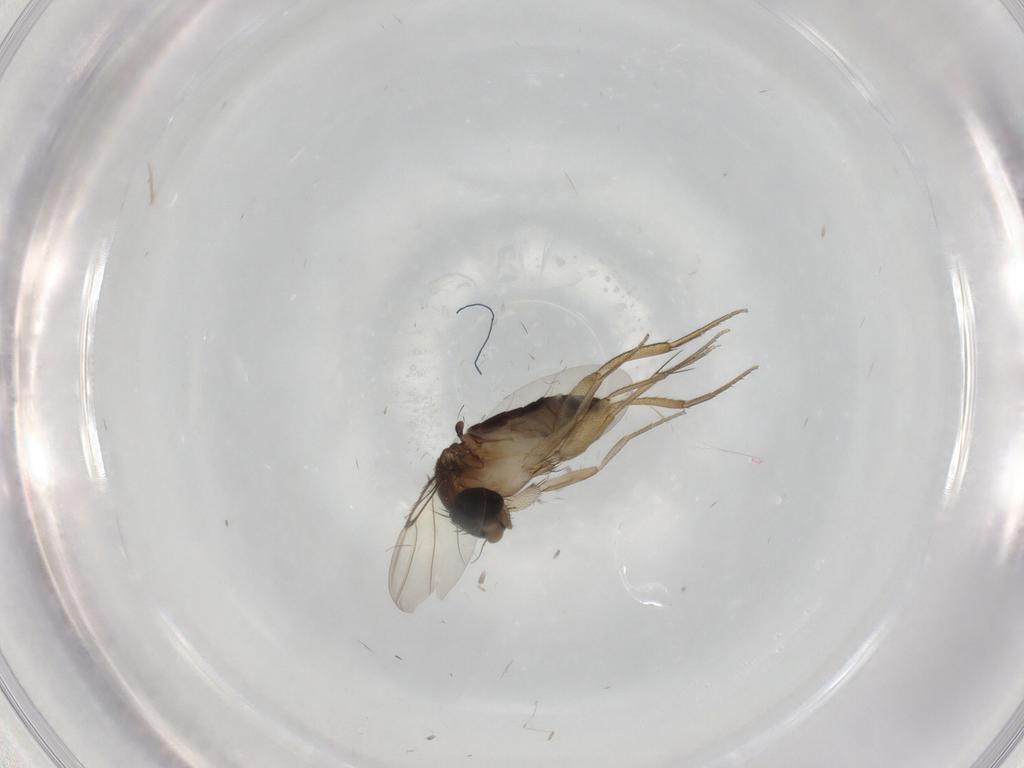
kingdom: Animalia
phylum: Arthropoda
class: Insecta
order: Diptera
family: Phoridae
